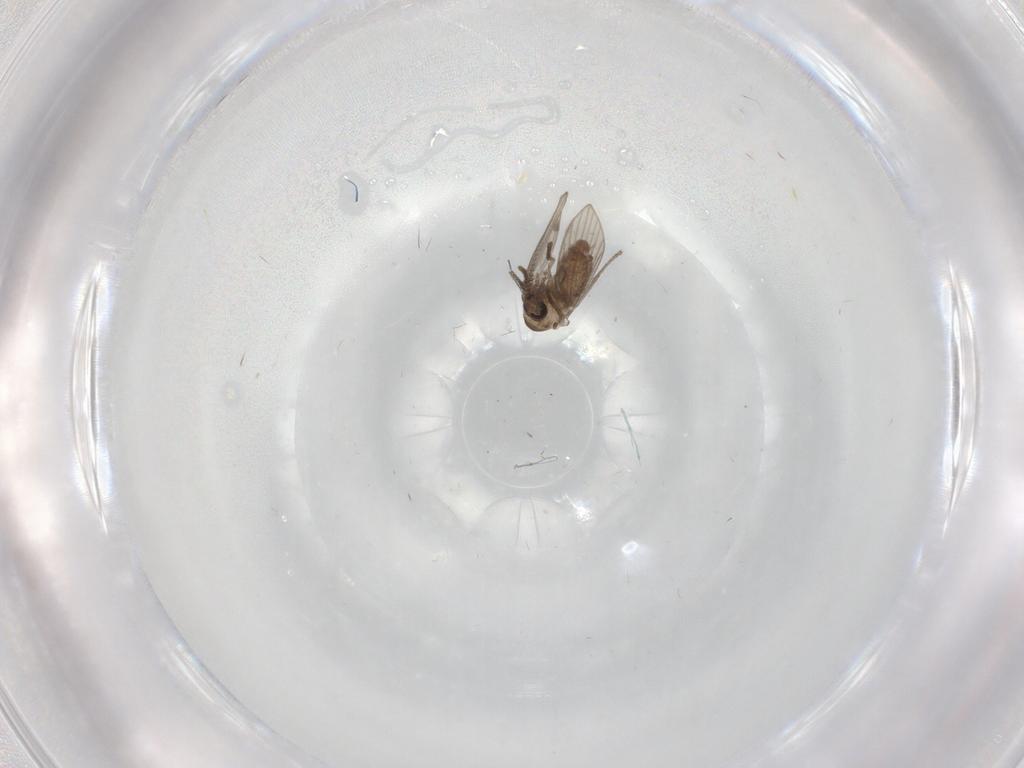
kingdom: Animalia
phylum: Arthropoda
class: Insecta
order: Diptera
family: Psychodidae
